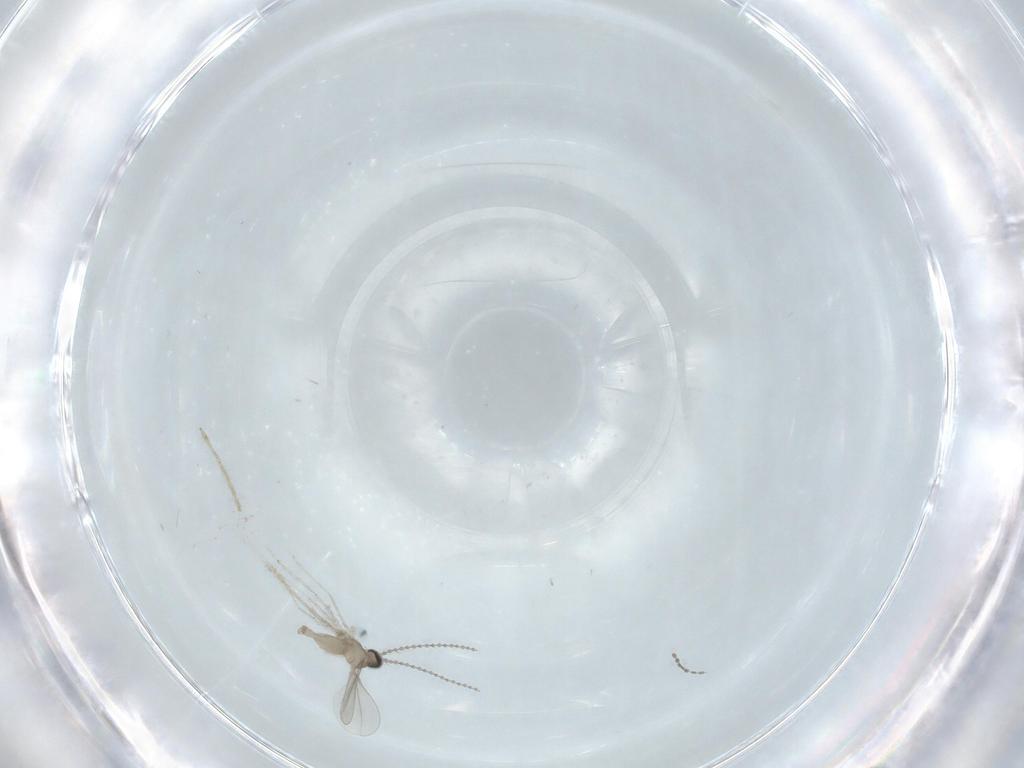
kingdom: Animalia
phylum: Arthropoda
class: Insecta
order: Diptera
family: Cecidomyiidae
